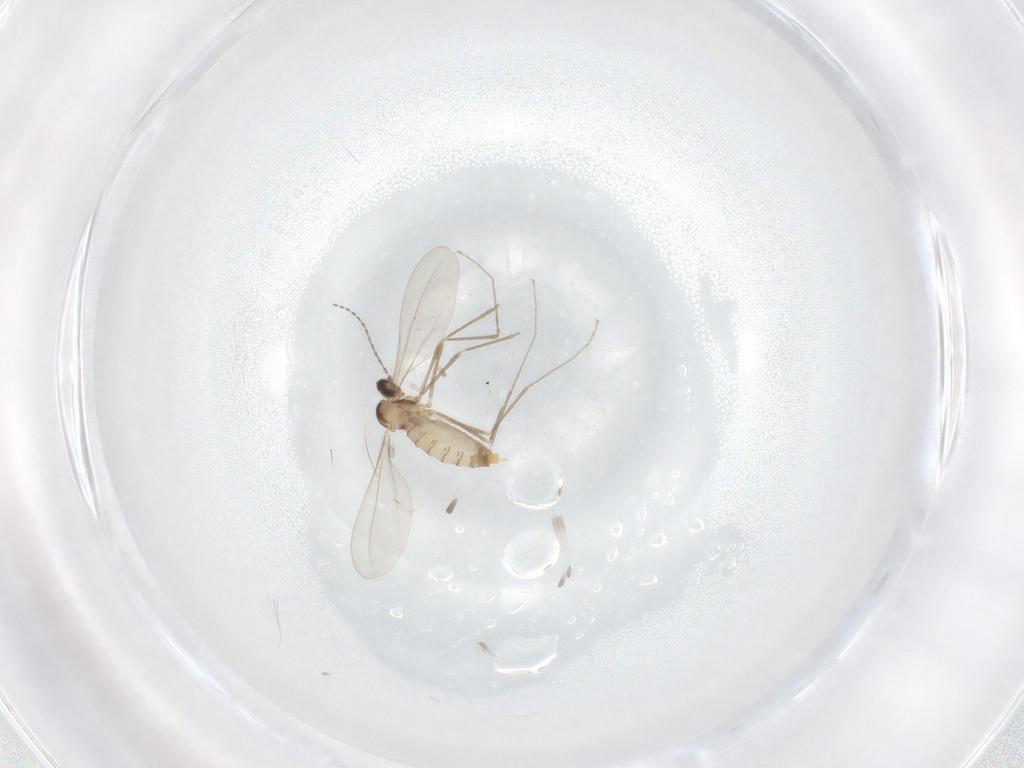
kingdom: Animalia
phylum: Arthropoda
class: Insecta
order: Diptera
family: Cecidomyiidae
